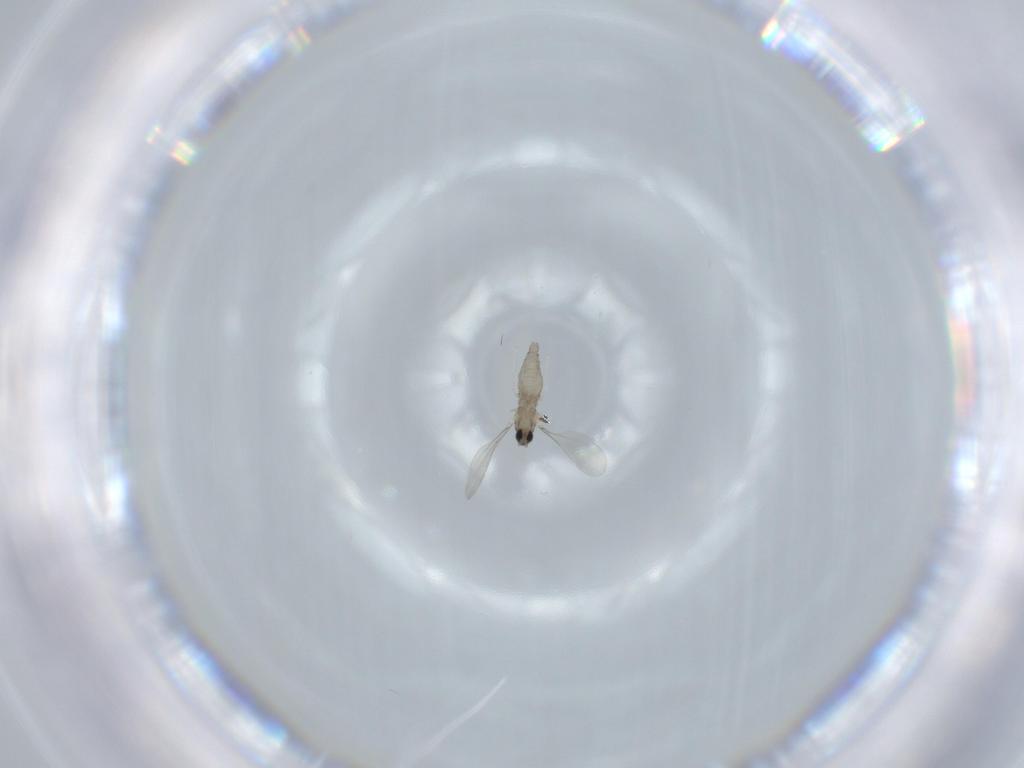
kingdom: Animalia
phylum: Arthropoda
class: Insecta
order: Diptera
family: Cecidomyiidae
